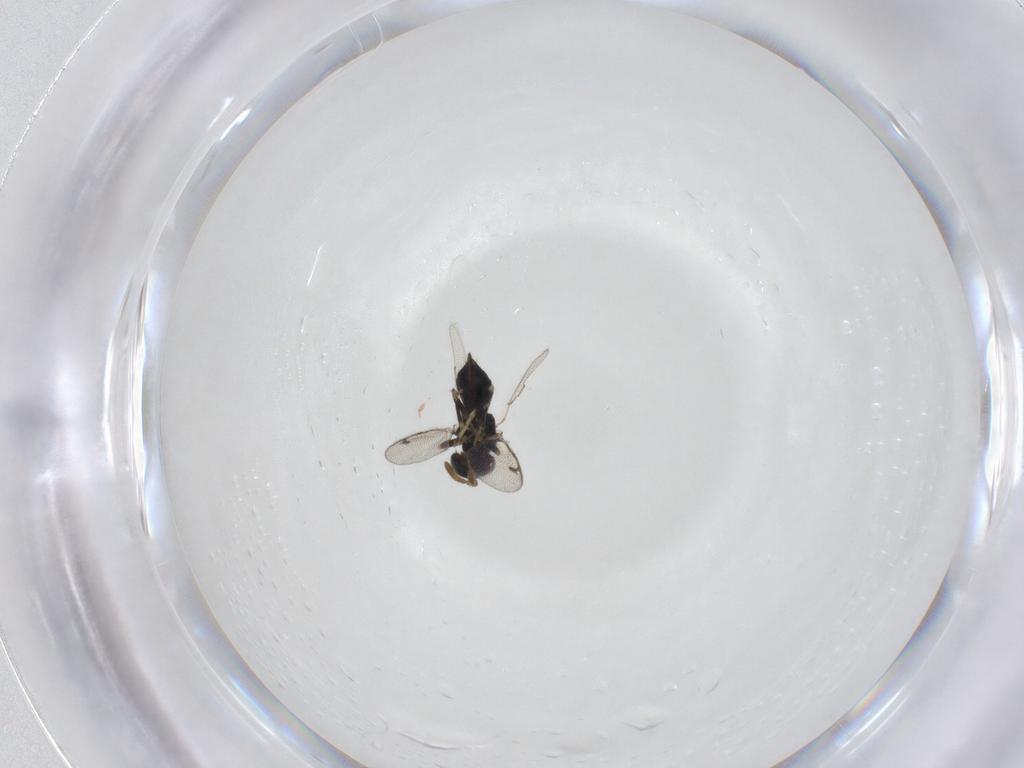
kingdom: Animalia
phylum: Arthropoda
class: Insecta
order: Hymenoptera
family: Pirenidae
